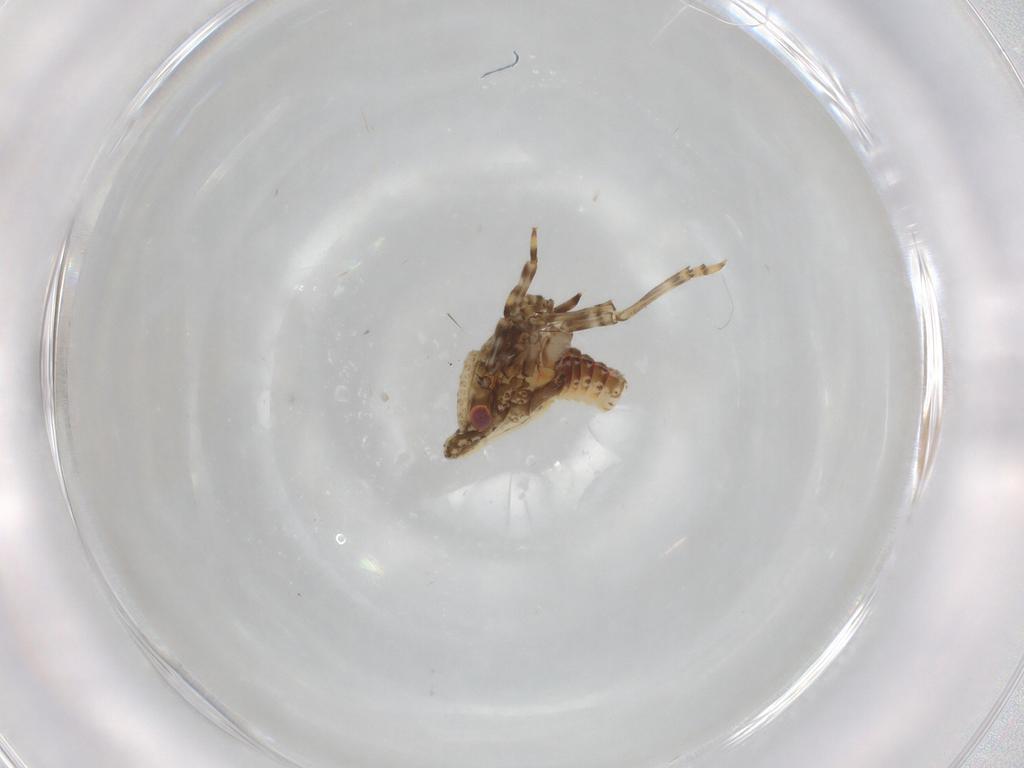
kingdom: Animalia
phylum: Arthropoda
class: Insecta
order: Hemiptera
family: Fulgoroidea_incertae_sedis
